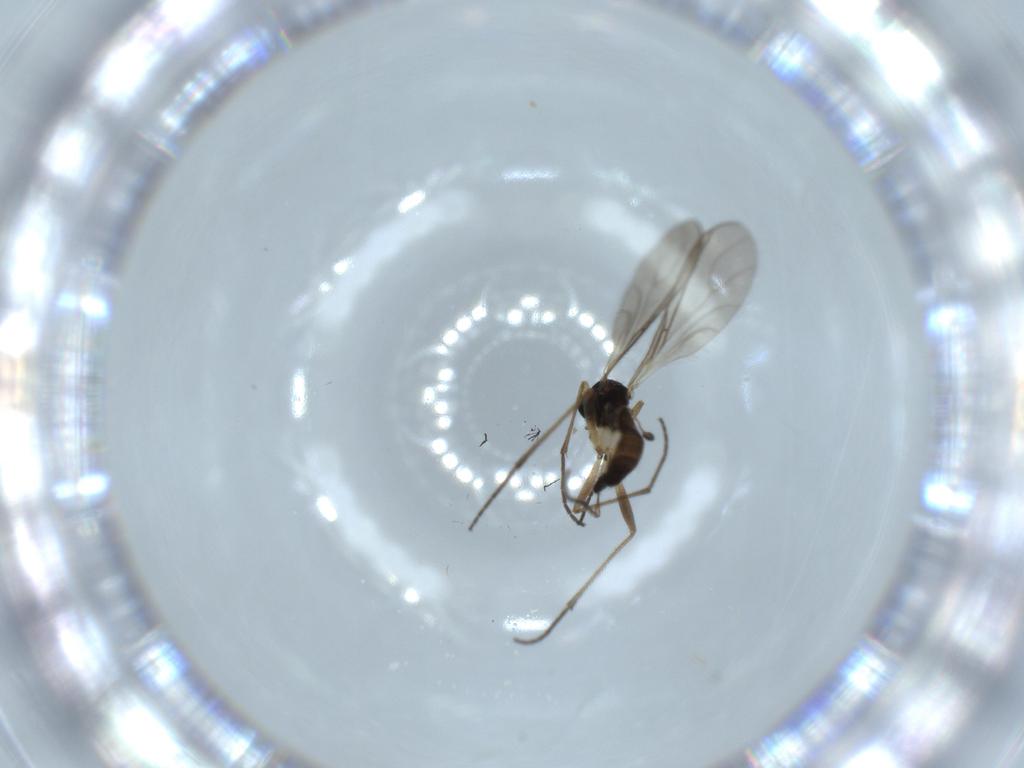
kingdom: Animalia
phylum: Arthropoda
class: Insecta
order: Diptera
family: Sciaridae
